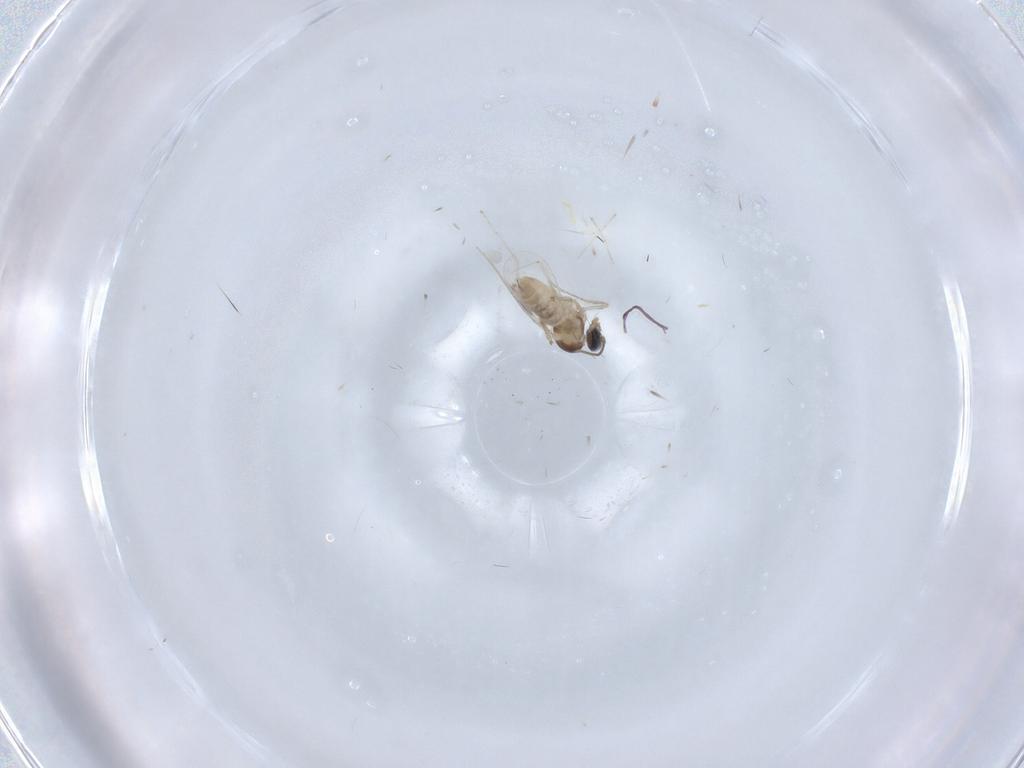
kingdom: Animalia
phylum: Arthropoda
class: Insecta
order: Diptera
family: Cecidomyiidae
